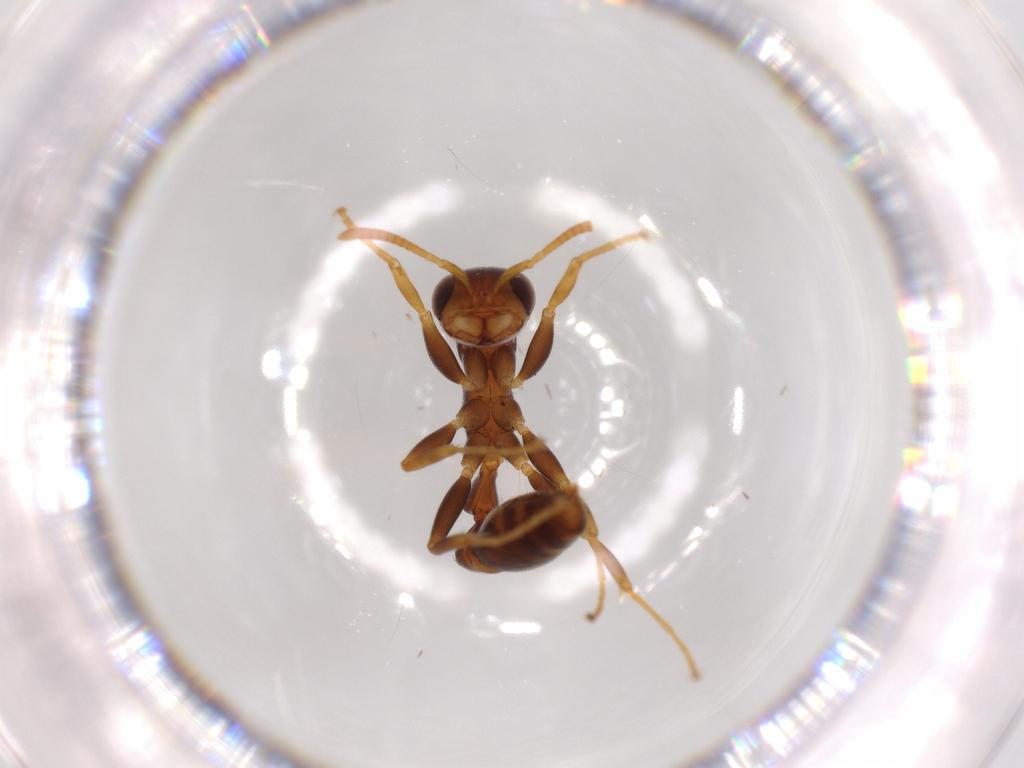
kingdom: Animalia
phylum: Arthropoda
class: Insecta
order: Hymenoptera
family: Formicidae
